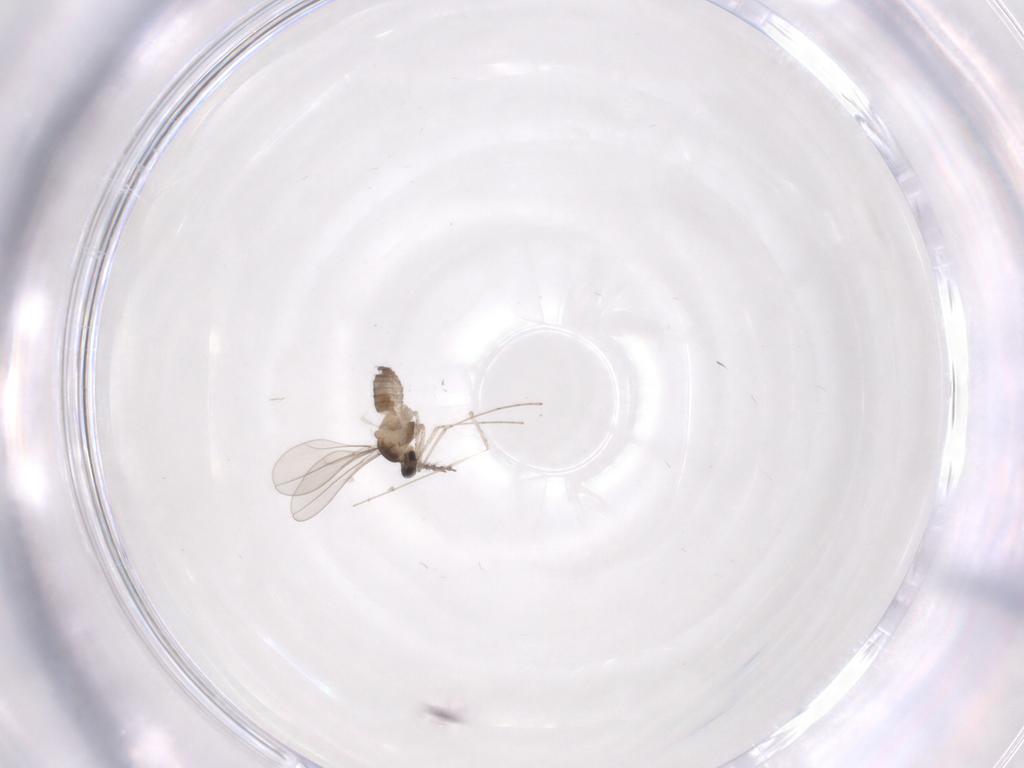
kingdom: Animalia
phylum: Arthropoda
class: Insecta
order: Diptera
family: Cecidomyiidae
